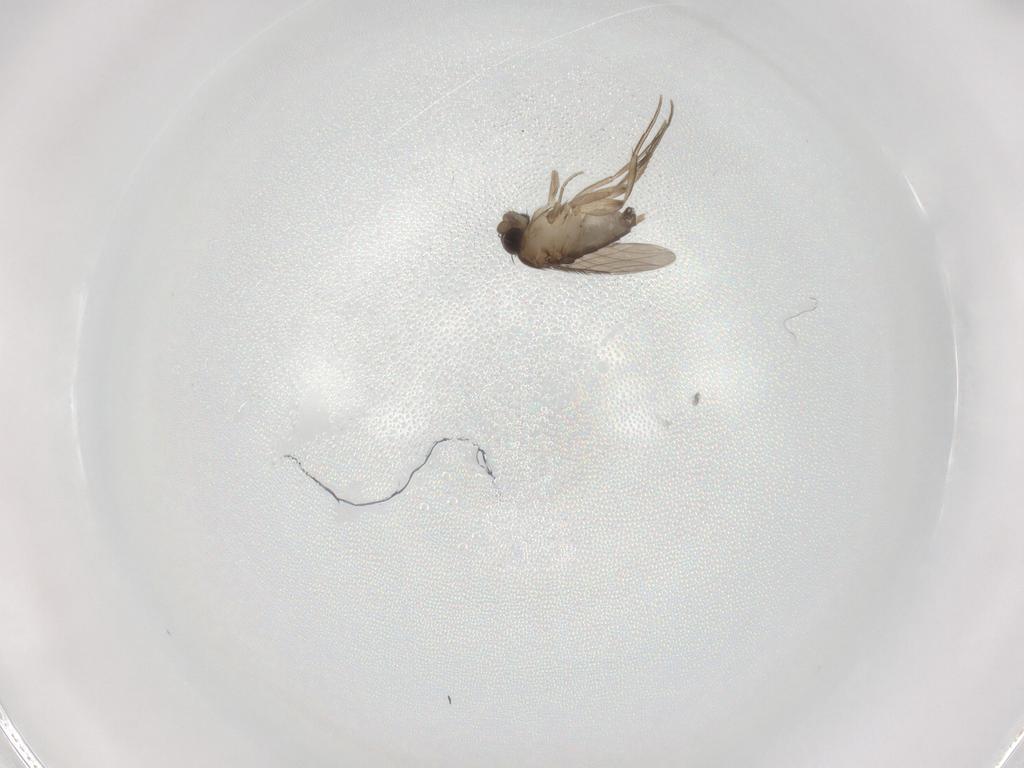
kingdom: Animalia
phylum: Arthropoda
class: Insecta
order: Diptera
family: Phoridae
